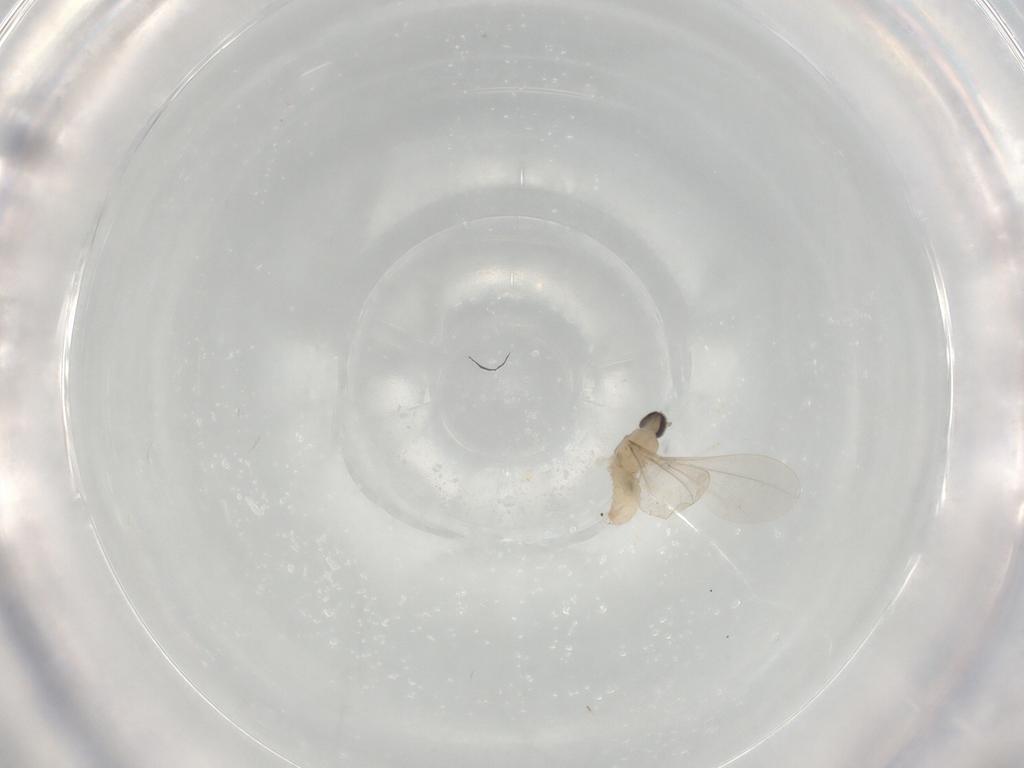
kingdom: Animalia
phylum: Arthropoda
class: Insecta
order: Diptera
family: Cecidomyiidae
